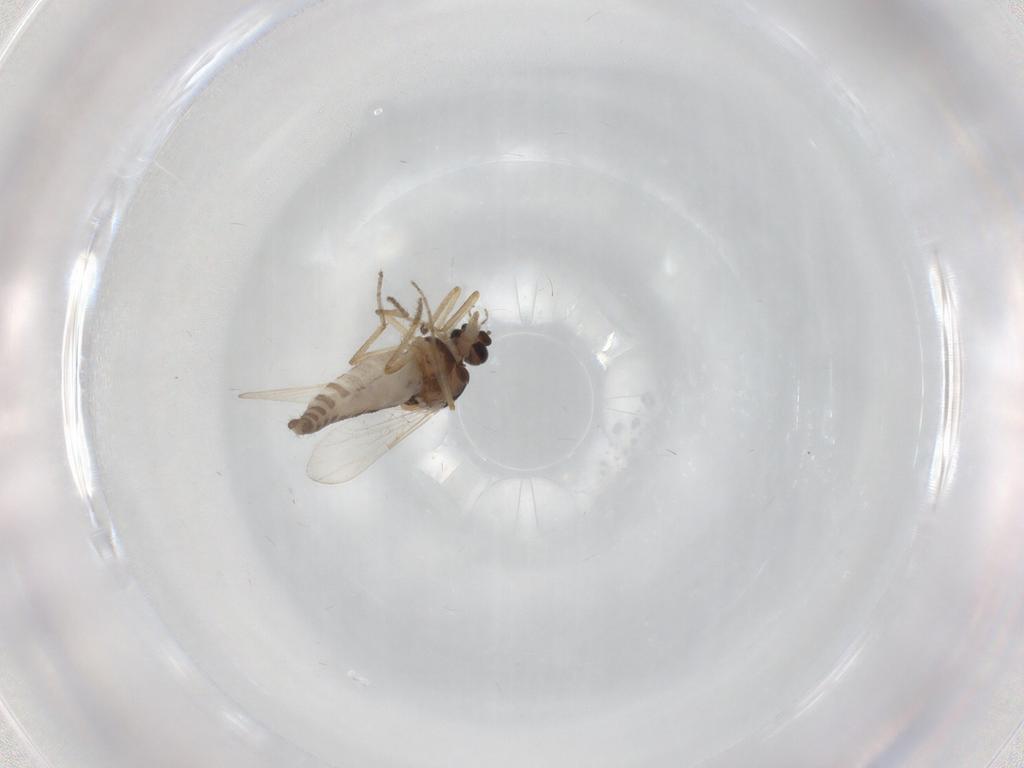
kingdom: Animalia
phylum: Arthropoda
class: Insecta
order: Diptera
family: Ceratopogonidae
